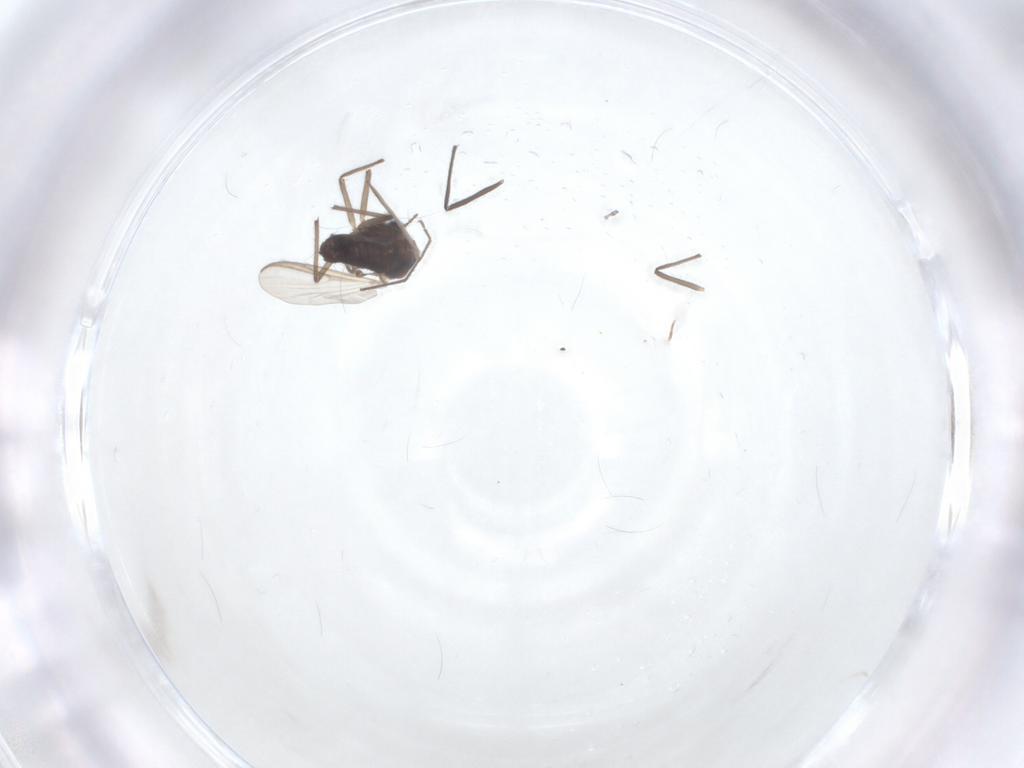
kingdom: Animalia
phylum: Arthropoda
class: Insecta
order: Diptera
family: Chironomidae
